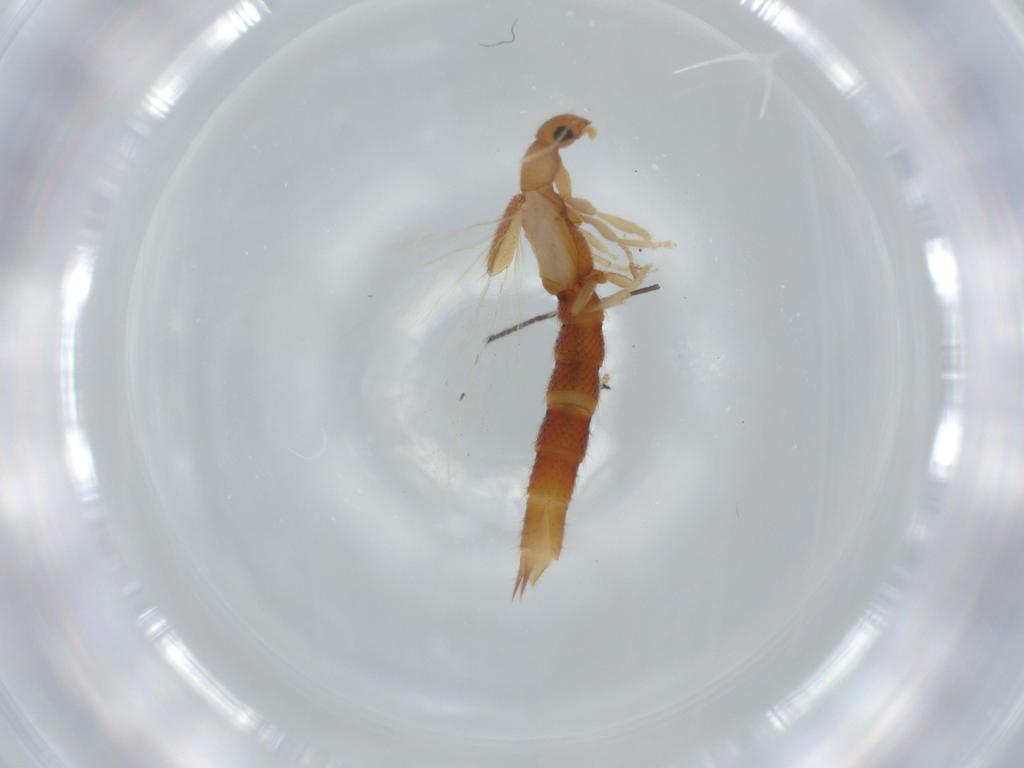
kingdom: Animalia
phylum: Arthropoda
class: Insecta
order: Coleoptera
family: Staphylinidae
